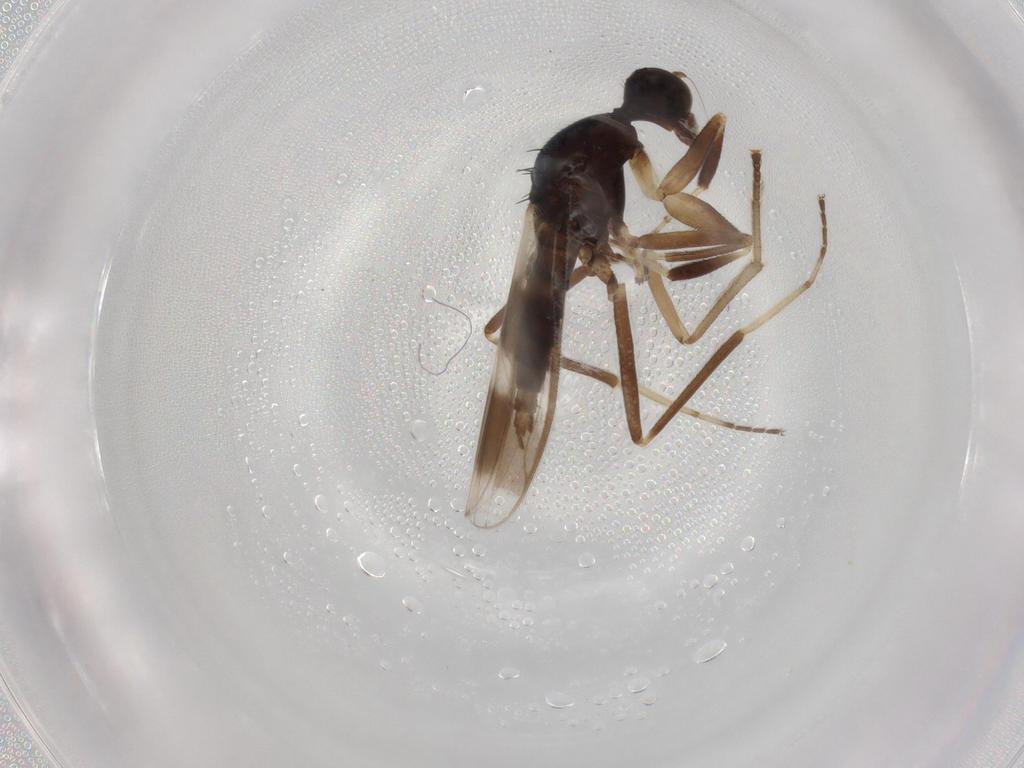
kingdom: Animalia
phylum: Arthropoda
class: Insecta
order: Diptera
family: Hybotidae
